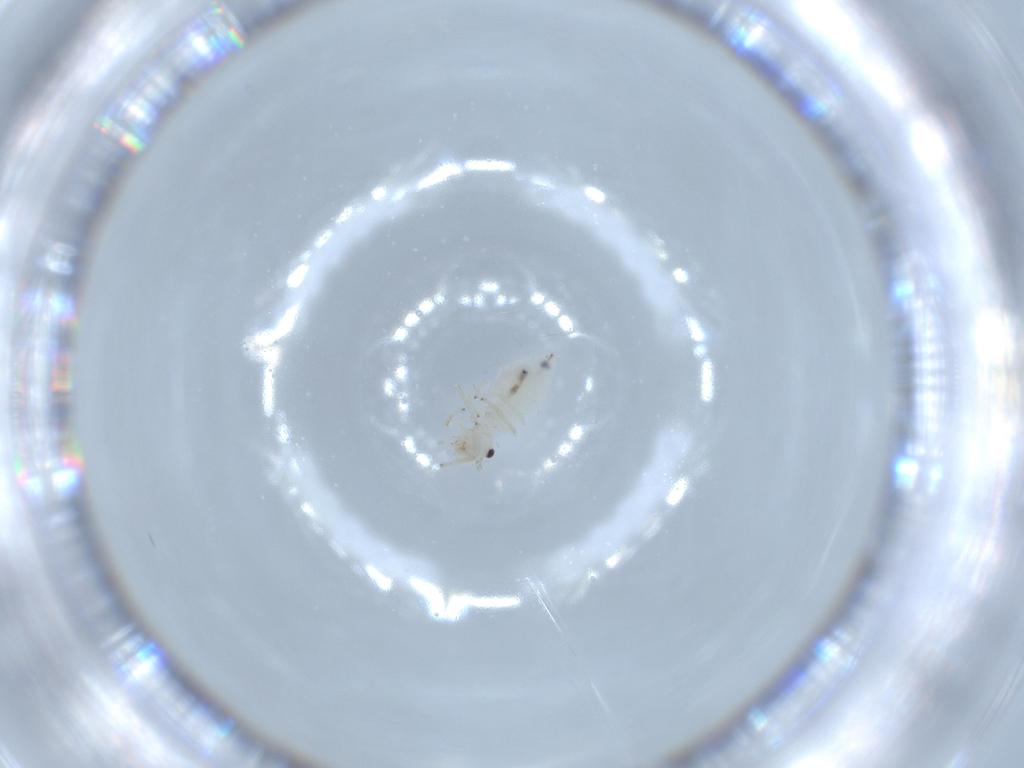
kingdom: Animalia
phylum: Arthropoda
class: Insecta
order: Psocodea
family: Caeciliusidae
